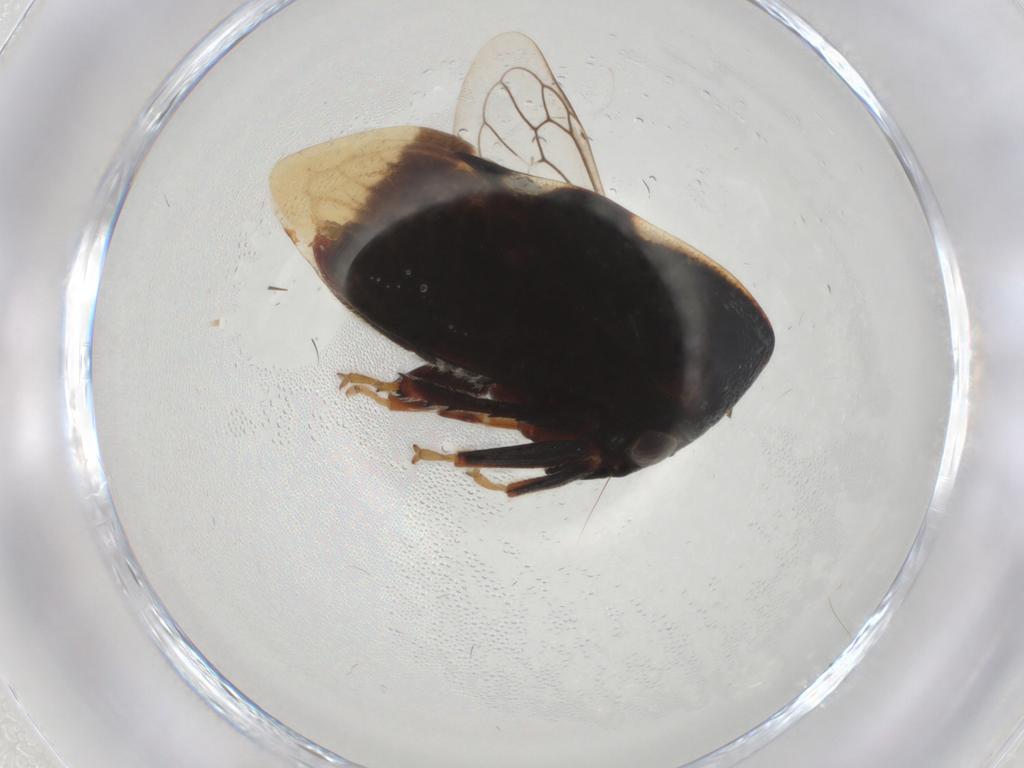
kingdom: Animalia
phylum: Arthropoda
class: Insecta
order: Hemiptera
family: Membracidae
